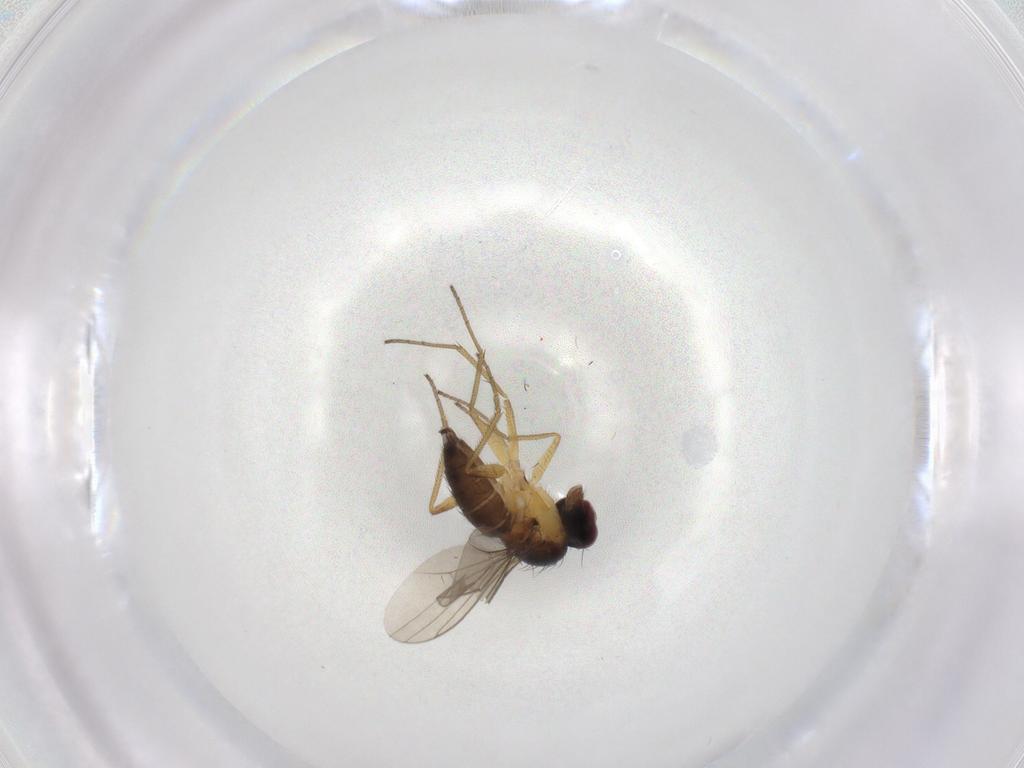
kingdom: Animalia
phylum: Arthropoda
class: Insecta
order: Diptera
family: Dolichopodidae
